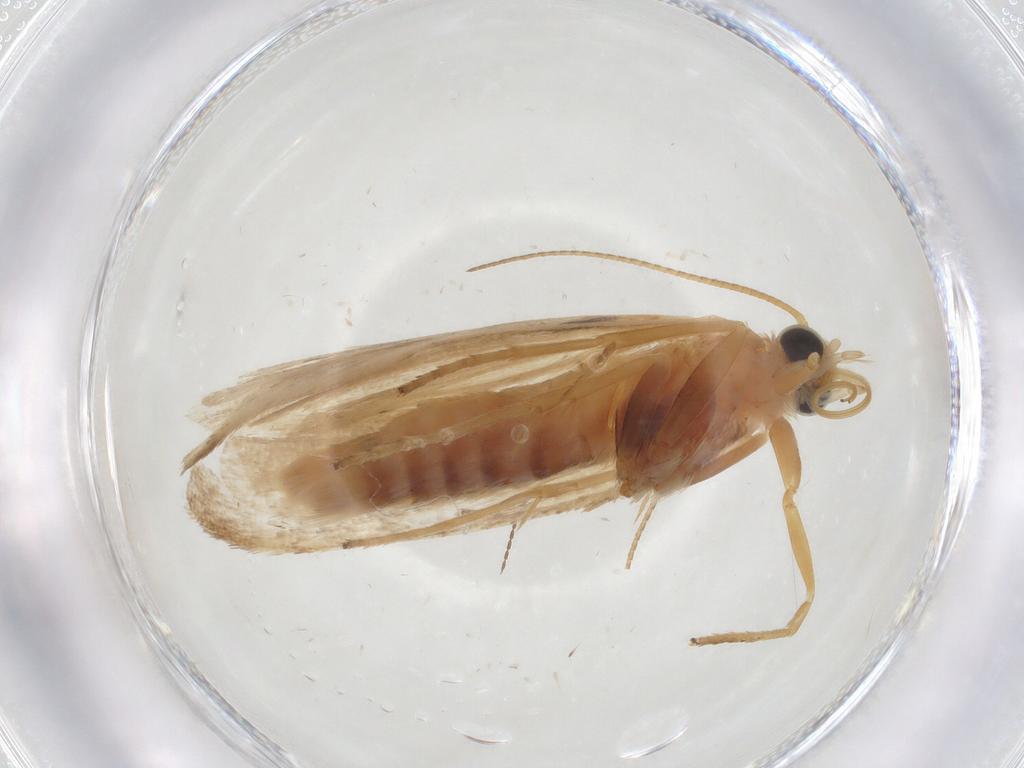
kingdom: Animalia
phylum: Arthropoda
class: Insecta
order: Lepidoptera
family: Pyralidae
